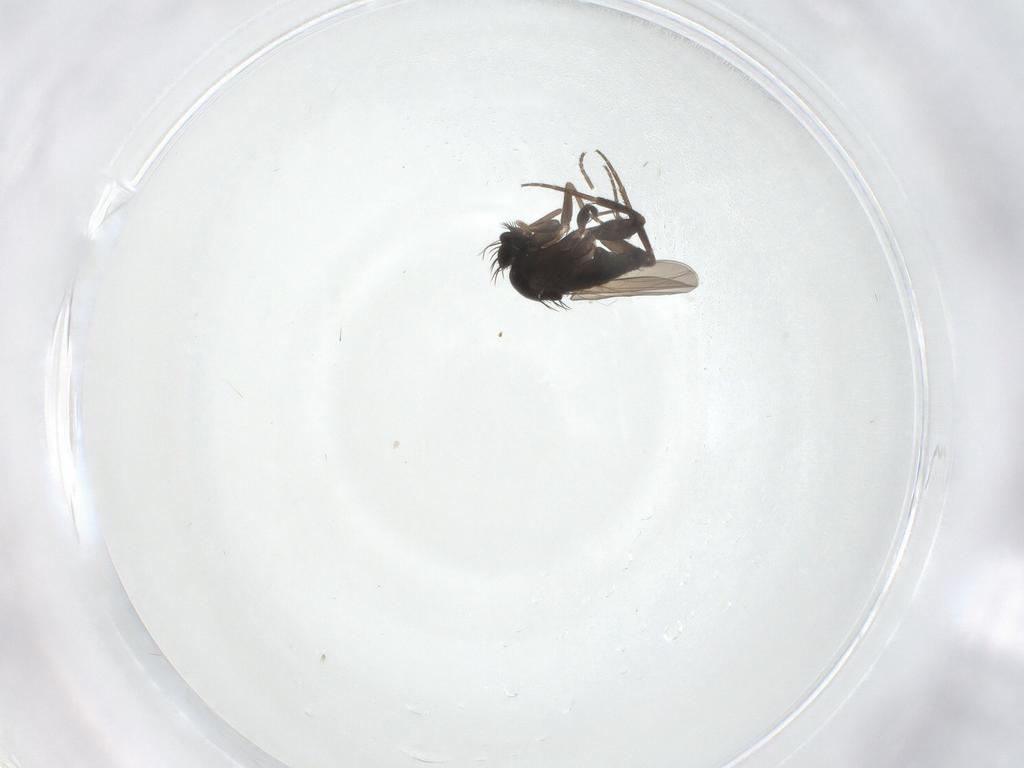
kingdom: Animalia
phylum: Arthropoda
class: Insecta
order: Diptera
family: Phoridae
